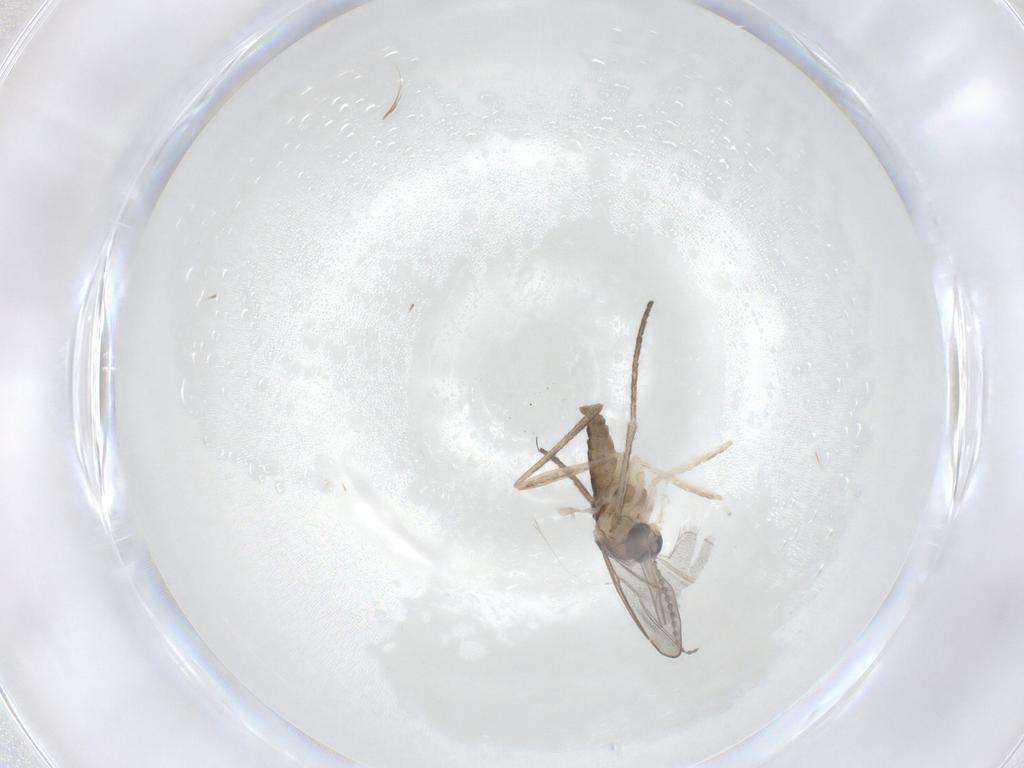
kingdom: Animalia
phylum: Arthropoda
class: Insecta
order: Diptera
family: Cecidomyiidae
